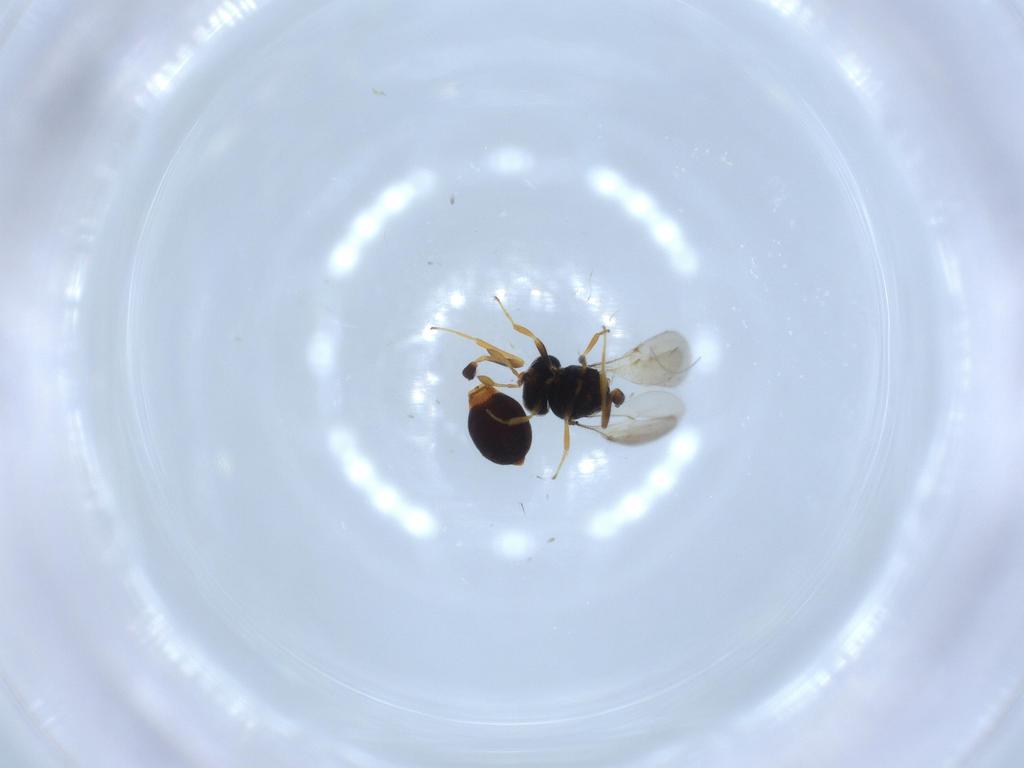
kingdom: Animalia
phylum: Arthropoda
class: Insecta
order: Hymenoptera
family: Scelionidae
